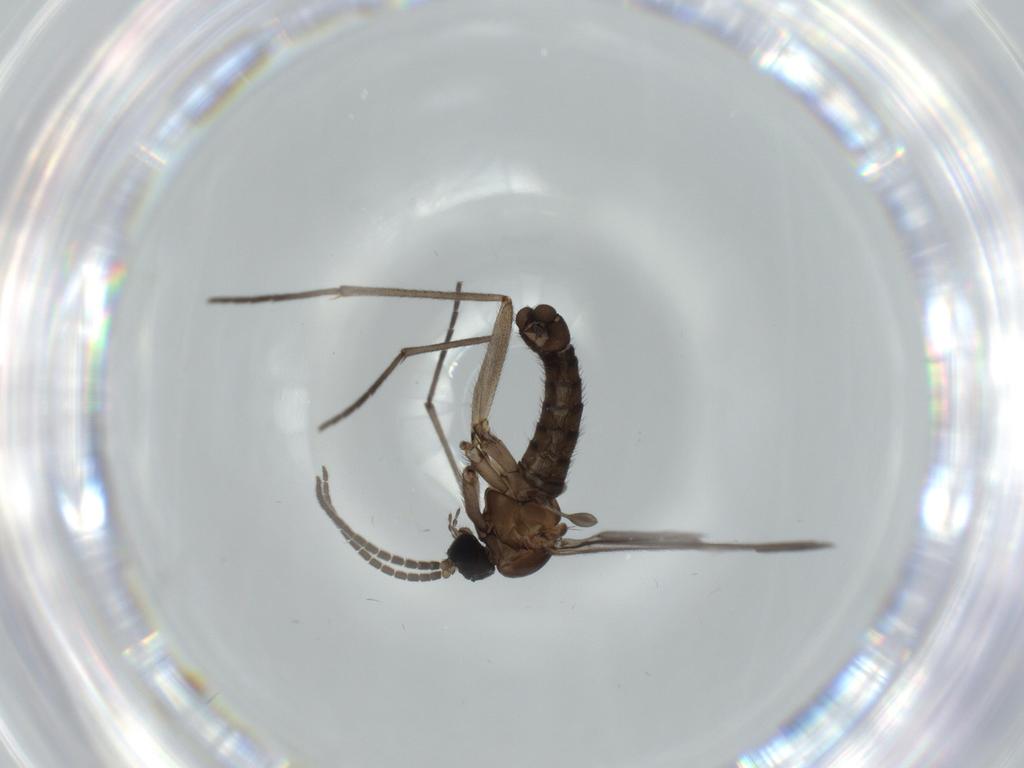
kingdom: Animalia
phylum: Arthropoda
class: Insecta
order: Diptera
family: Sciaridae
